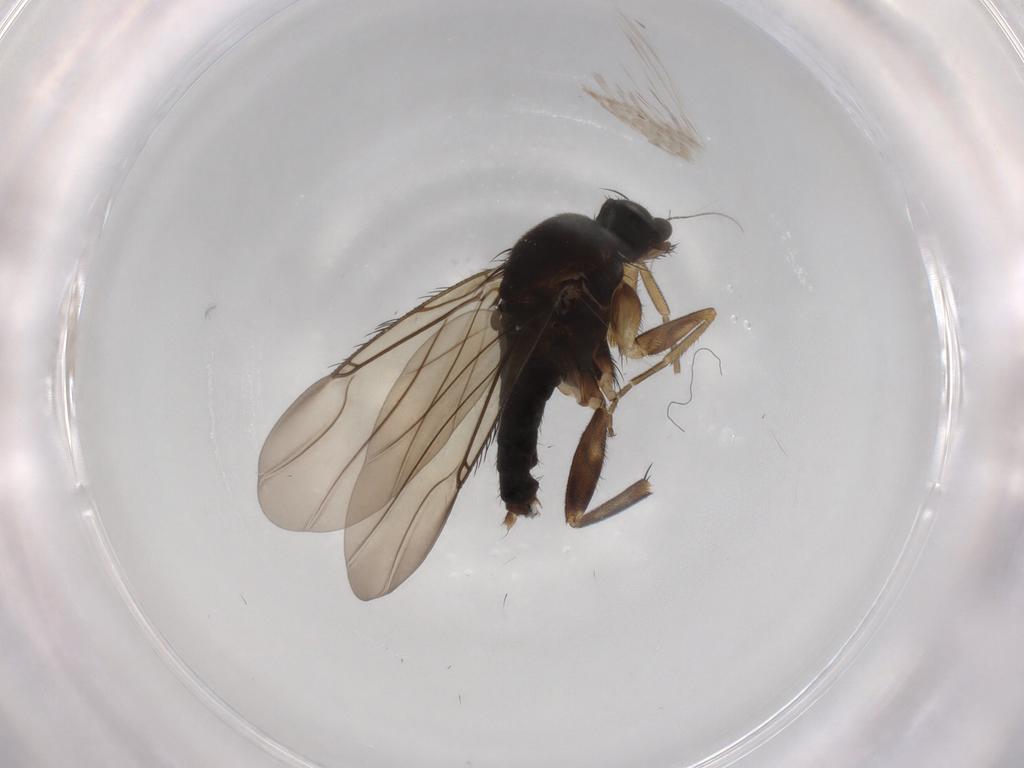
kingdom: Animalia
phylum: Arthropoda
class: Insecta
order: Diptera
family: Phoridae
